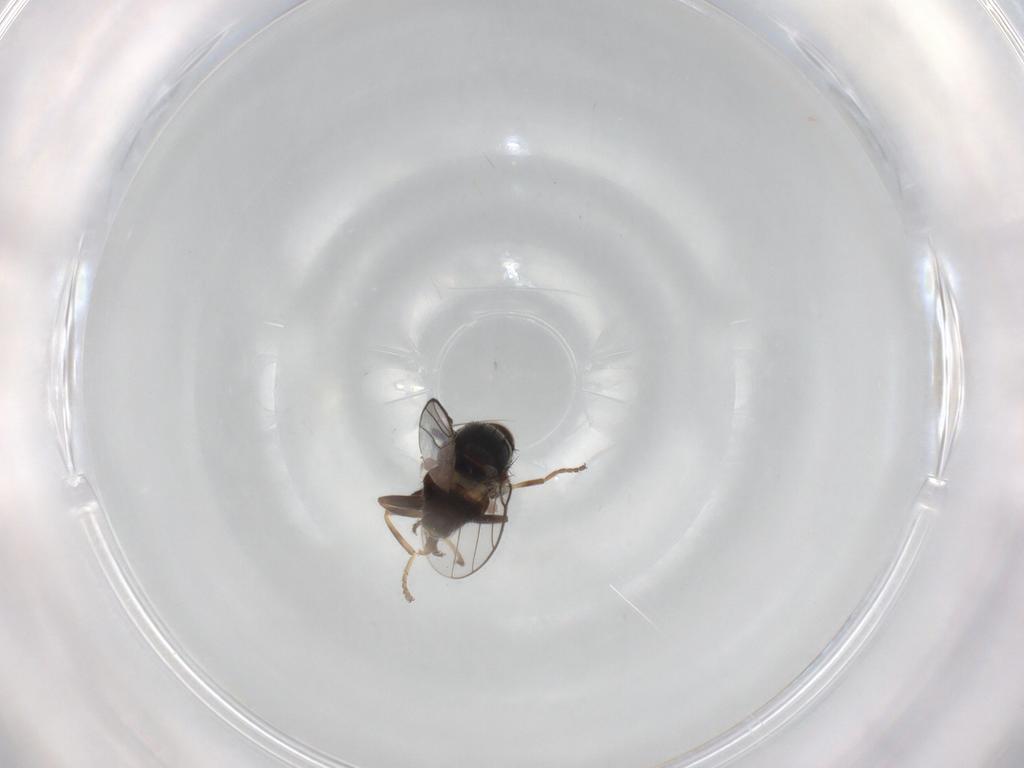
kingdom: Animalia
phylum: Arthropoda
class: Insecta
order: Diptera
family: Chloropidae
